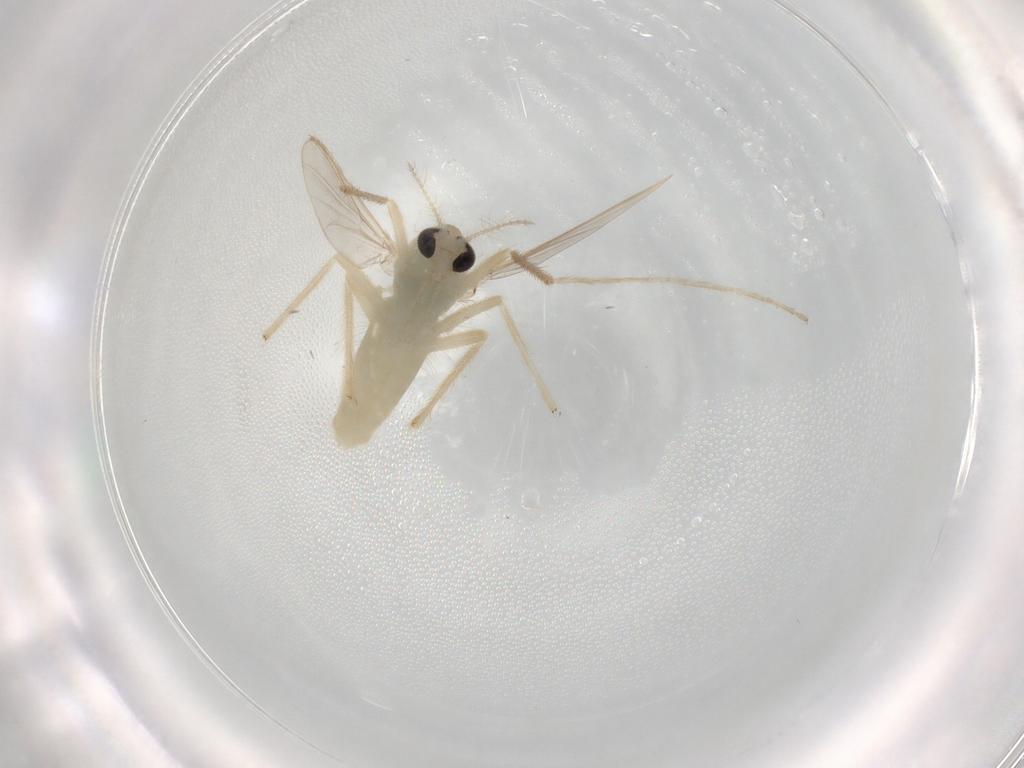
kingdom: Animalia
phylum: Arthropoda
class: Insecta
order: Diptera
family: Chironomidae
